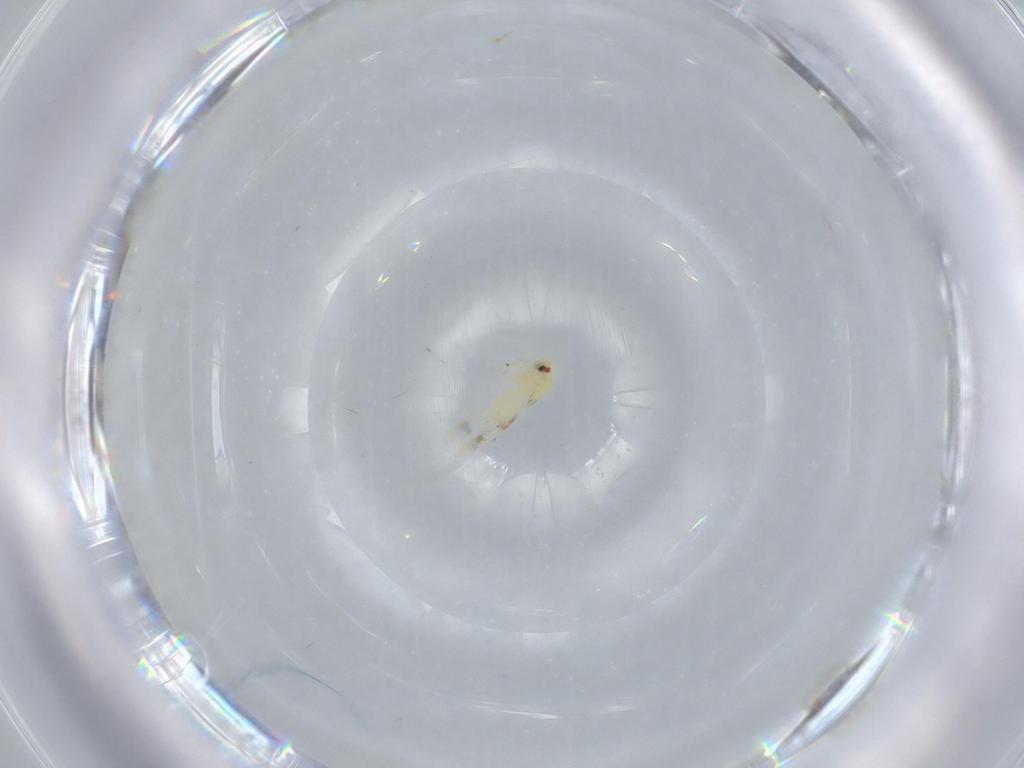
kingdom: Animalia
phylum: Arthropoda
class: Insecta
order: Hemiptera
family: Aleyrodidae
